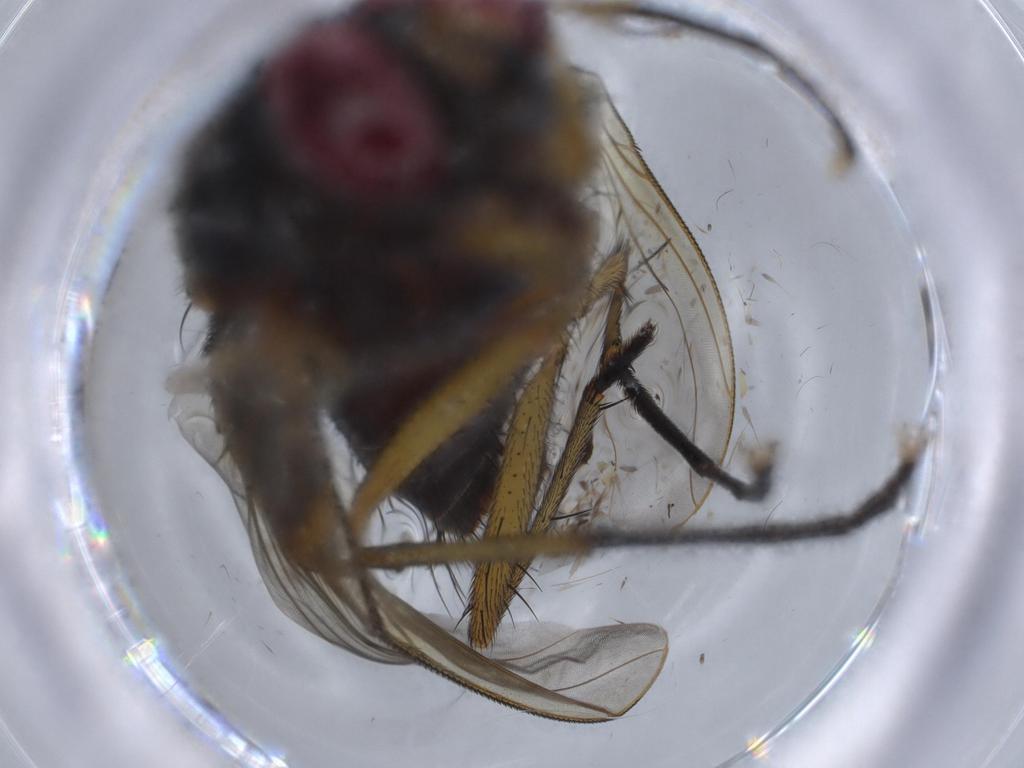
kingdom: Animalia
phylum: Arthropoda
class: Insecta
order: Diptera
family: Muscidae
